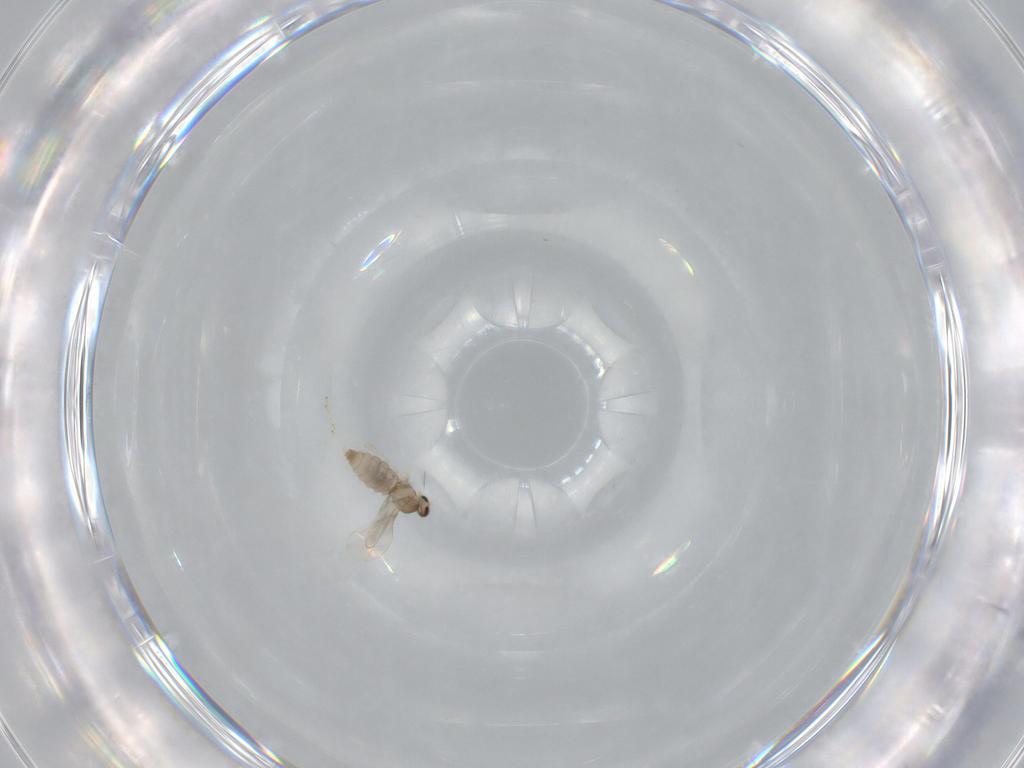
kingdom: Animalia
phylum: Arthropoda
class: Insecta
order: Diptera
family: Cecidomyiidae
